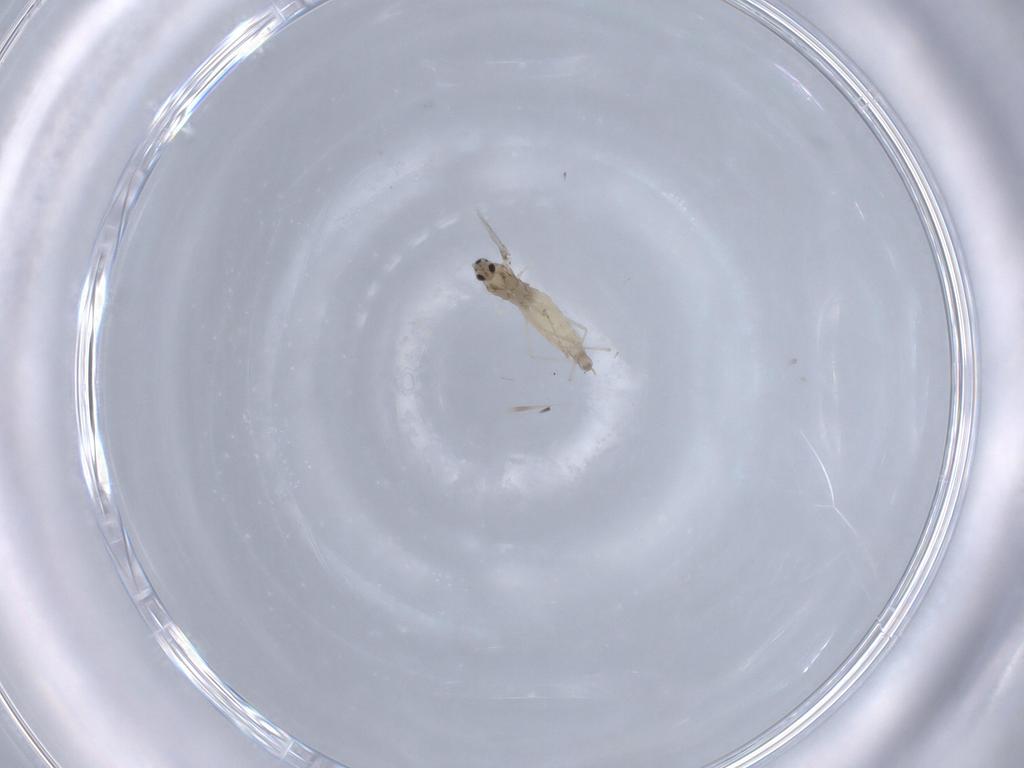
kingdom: Animalia
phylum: Arthropoda
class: Insecta
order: Diptera
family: Cecidomyiidae
